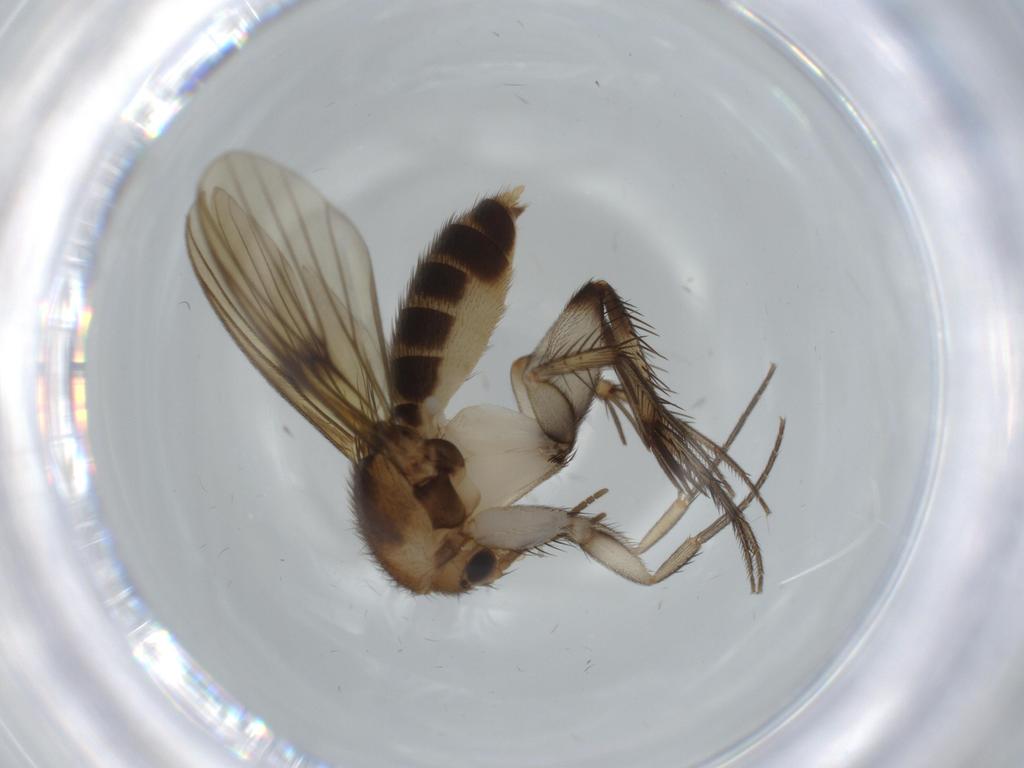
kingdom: Animalia
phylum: Arthropoda
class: Insecta
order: Diptera
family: Mycetophilidae
